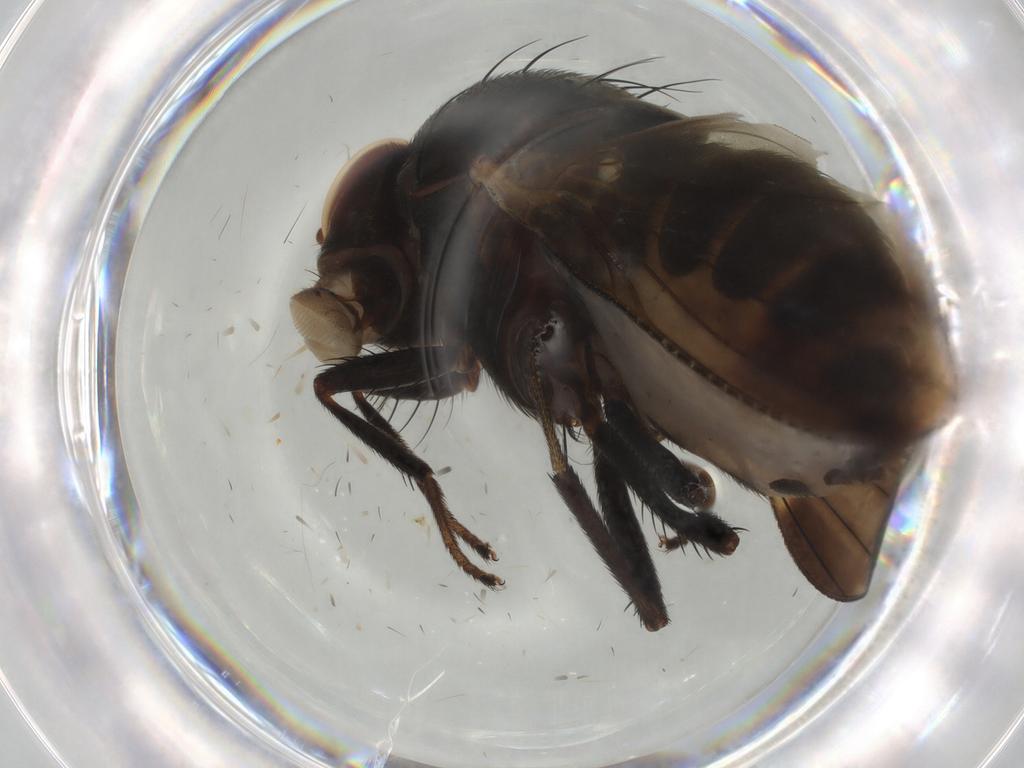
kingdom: Animalia
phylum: Arthropoda
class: Insecta
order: Diptera
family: Lauxaniidae
